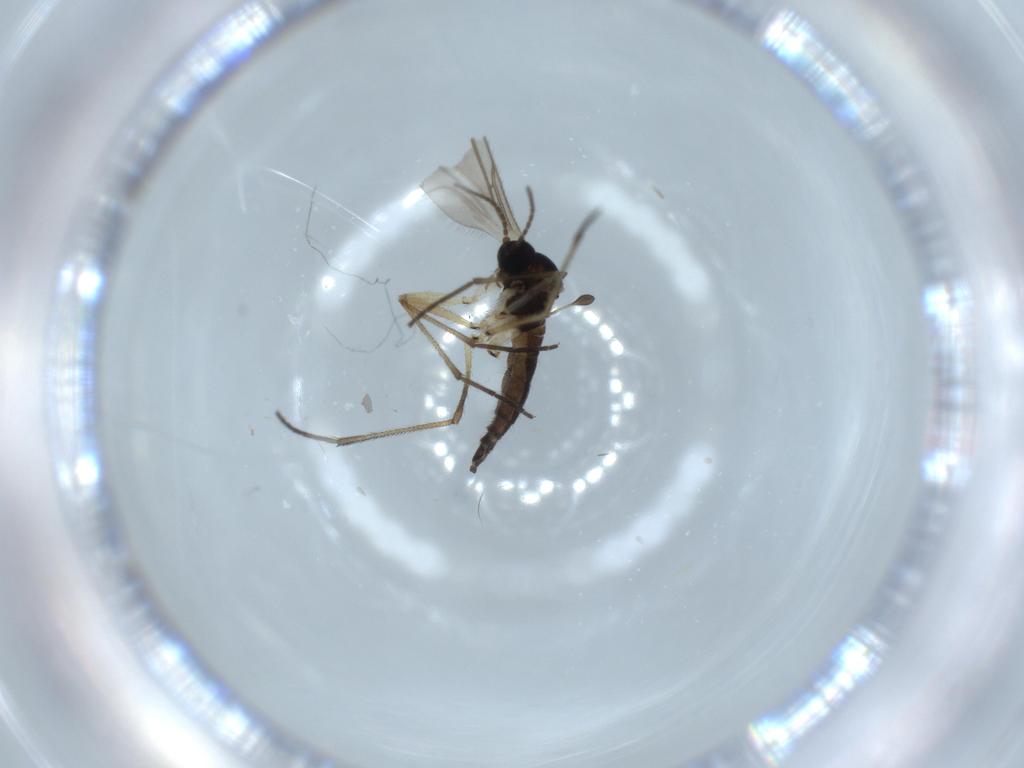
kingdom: Animalia
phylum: Arthropoda
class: Insecta
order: Diptera
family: Sciaridae
